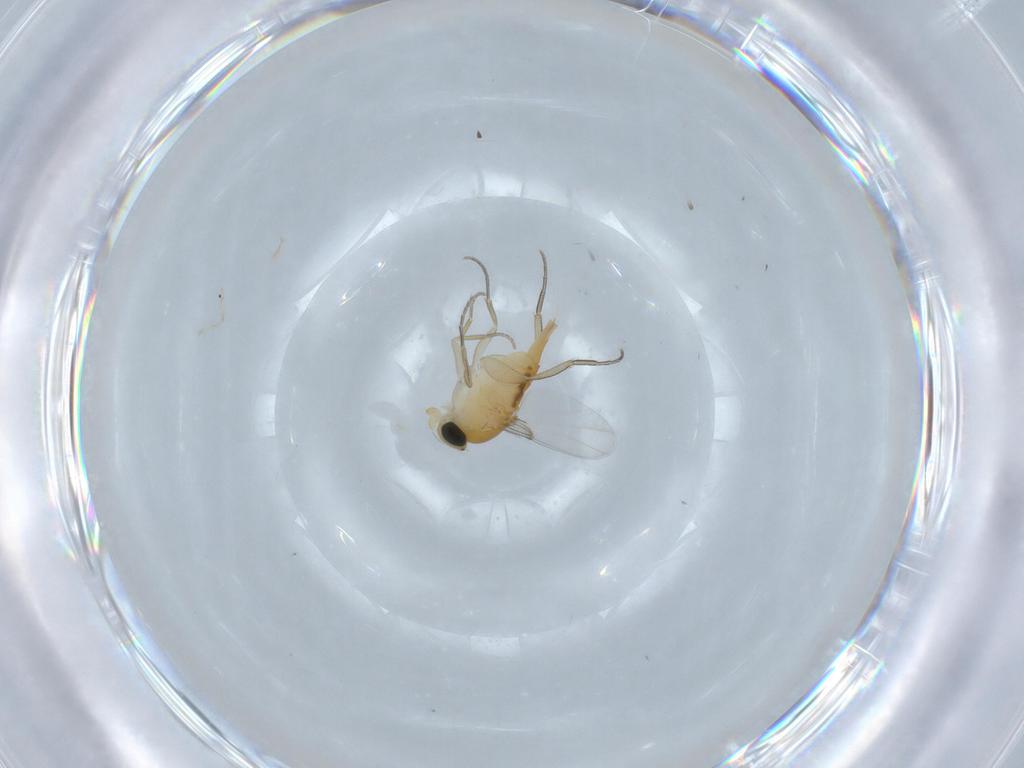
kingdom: Animalia
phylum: Arthropoda
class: Insecta
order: Diptera
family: Phoridae
